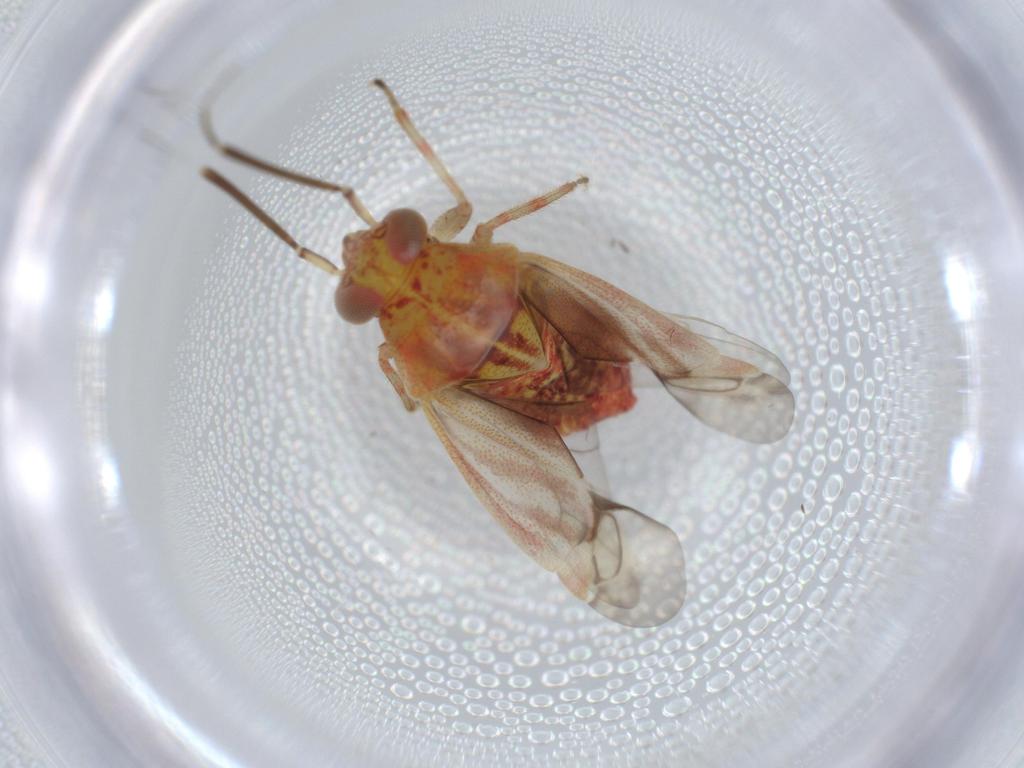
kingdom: Animalia
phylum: Arthropoda
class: Insecta
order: Hemiptera
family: Miridae
